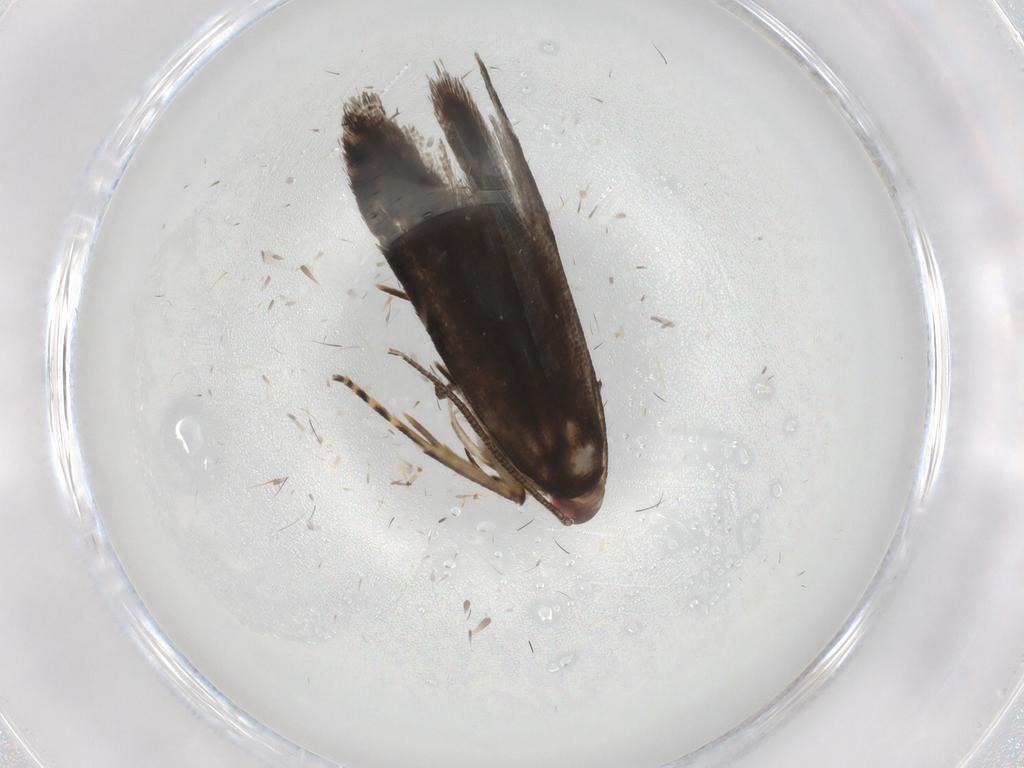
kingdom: Animalia
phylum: Arthropoda
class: Insecta
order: Lepidoptera
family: Gelechiidae
